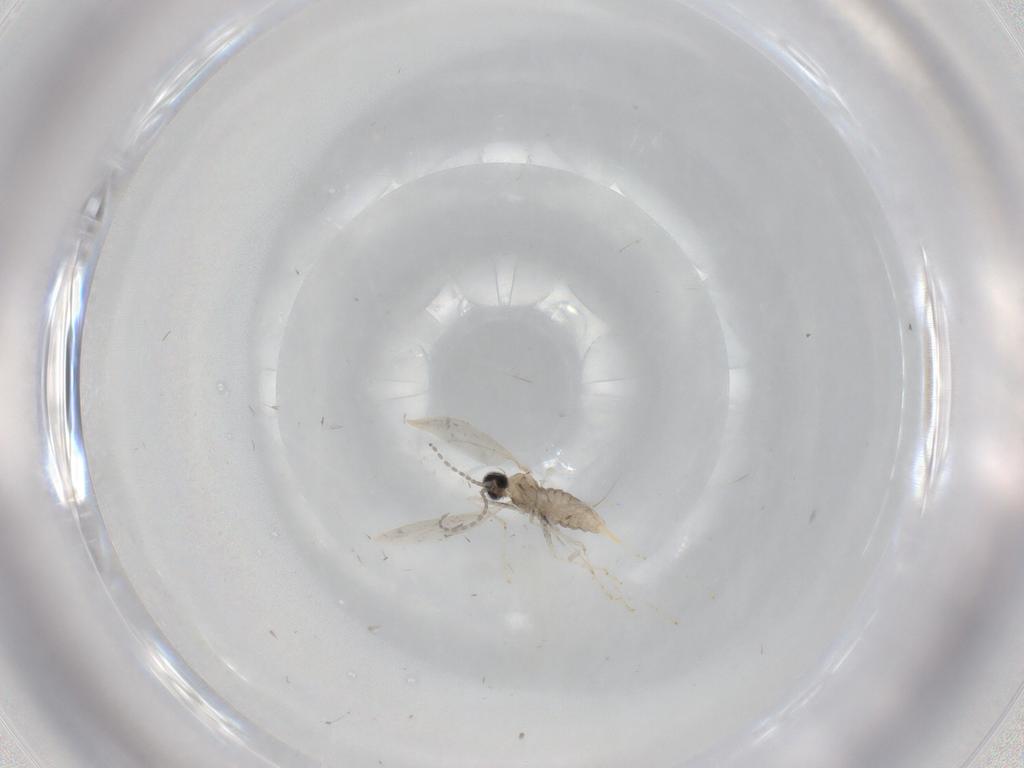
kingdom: Animalia
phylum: Arthropoda
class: Insecta
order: Diptera
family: Cecidomyiidae
